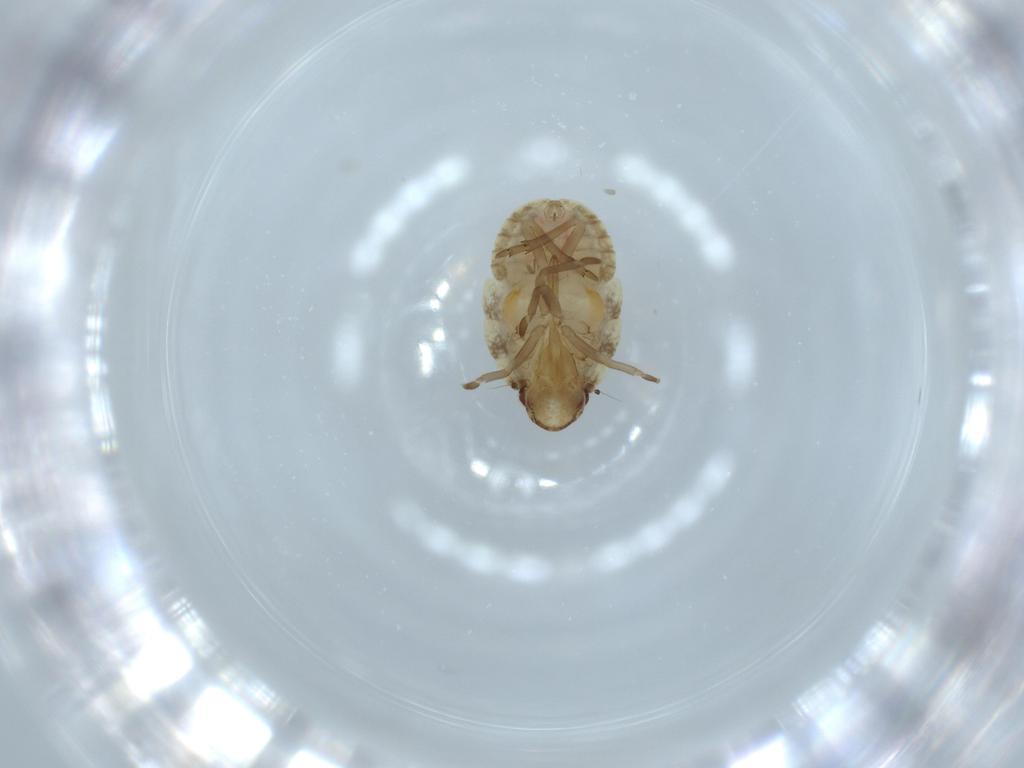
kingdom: Animalia
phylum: Arthropoda
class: Insecta
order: Hemiptera
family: Flatidae
